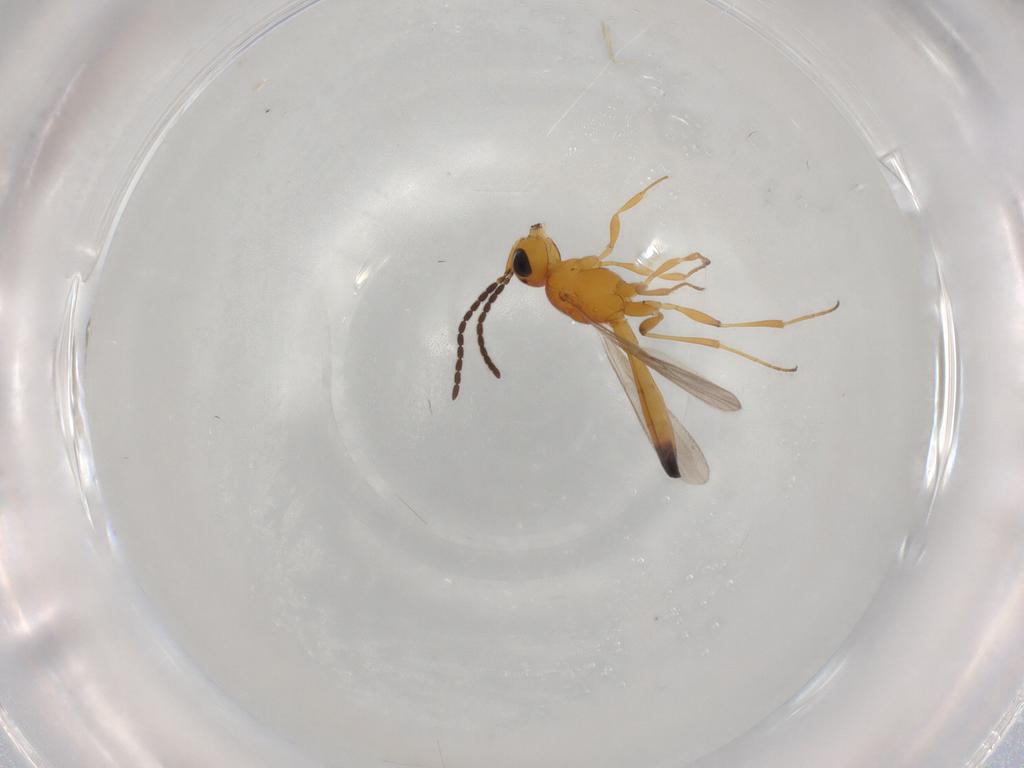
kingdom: Animalia
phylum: Arthropoda
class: Insecta
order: Hymenoptera
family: Scelionidae
